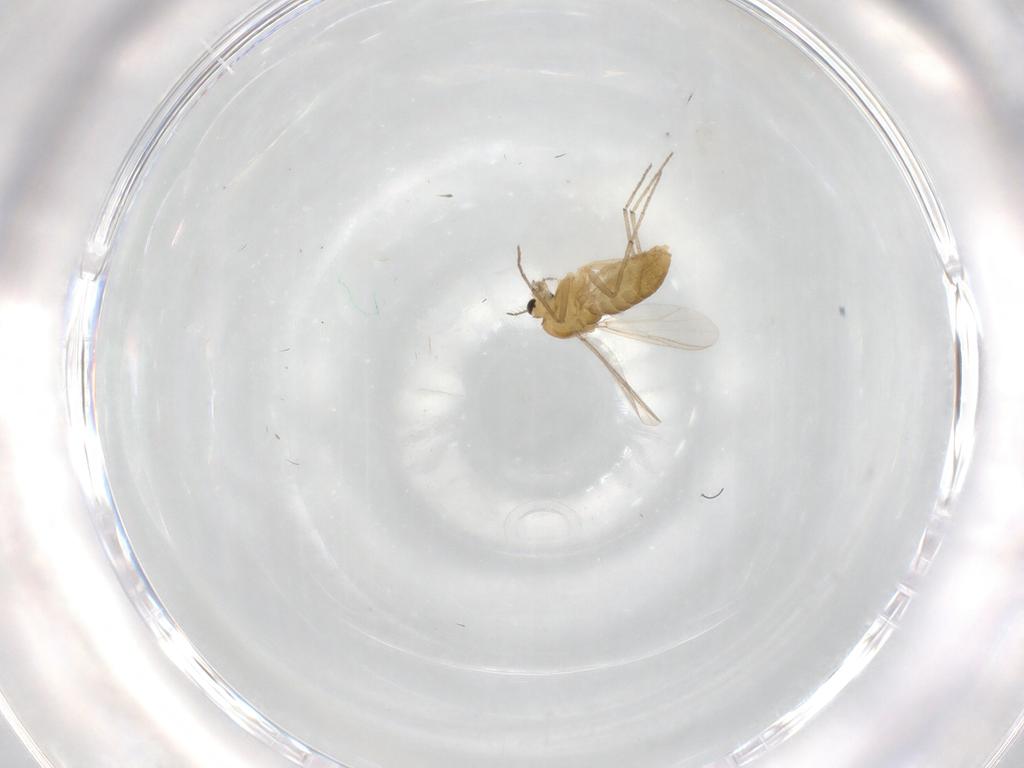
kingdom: Animalia
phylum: Arthropoda
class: Insecta
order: Diptera
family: Chironomidae
